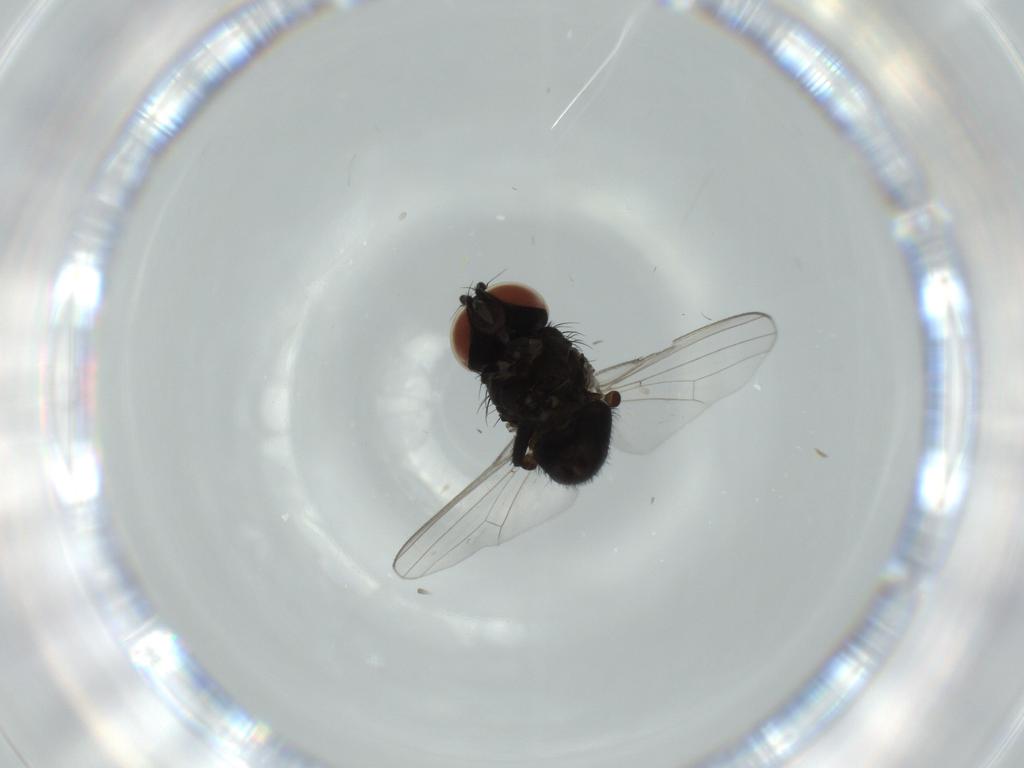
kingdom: Animalia
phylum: Arthropoda
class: Insecta
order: Diptera
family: Milichiidae
